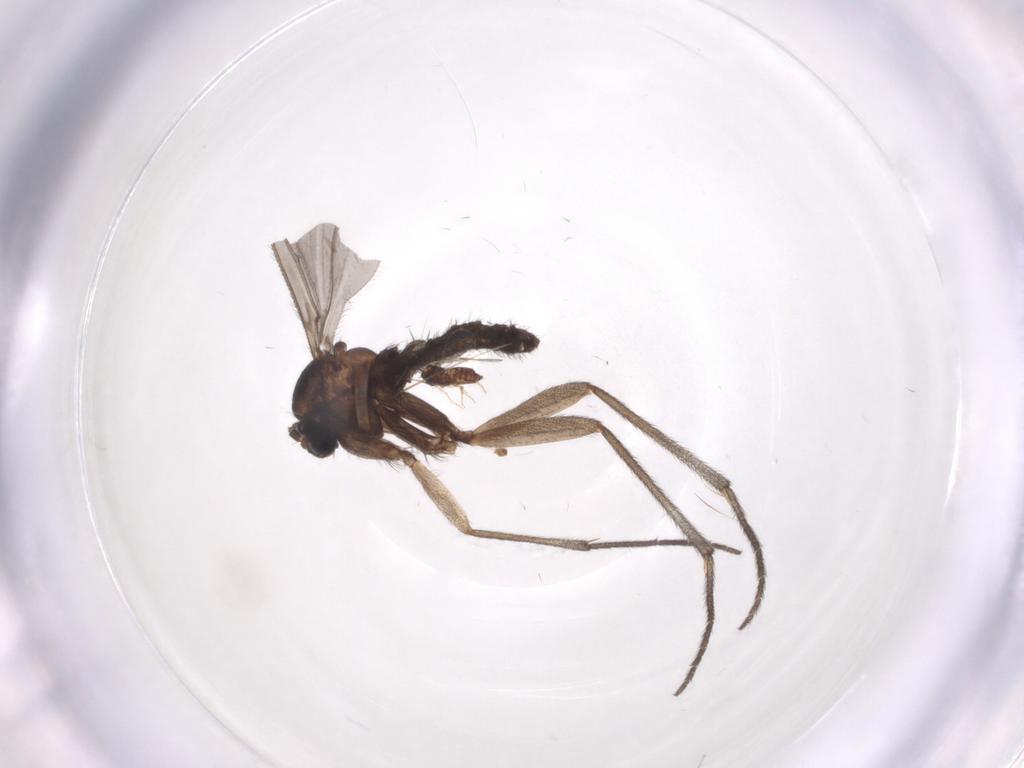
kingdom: Animalia
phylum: Arthropoda
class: Insecta
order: Diptera
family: Sciaridae
